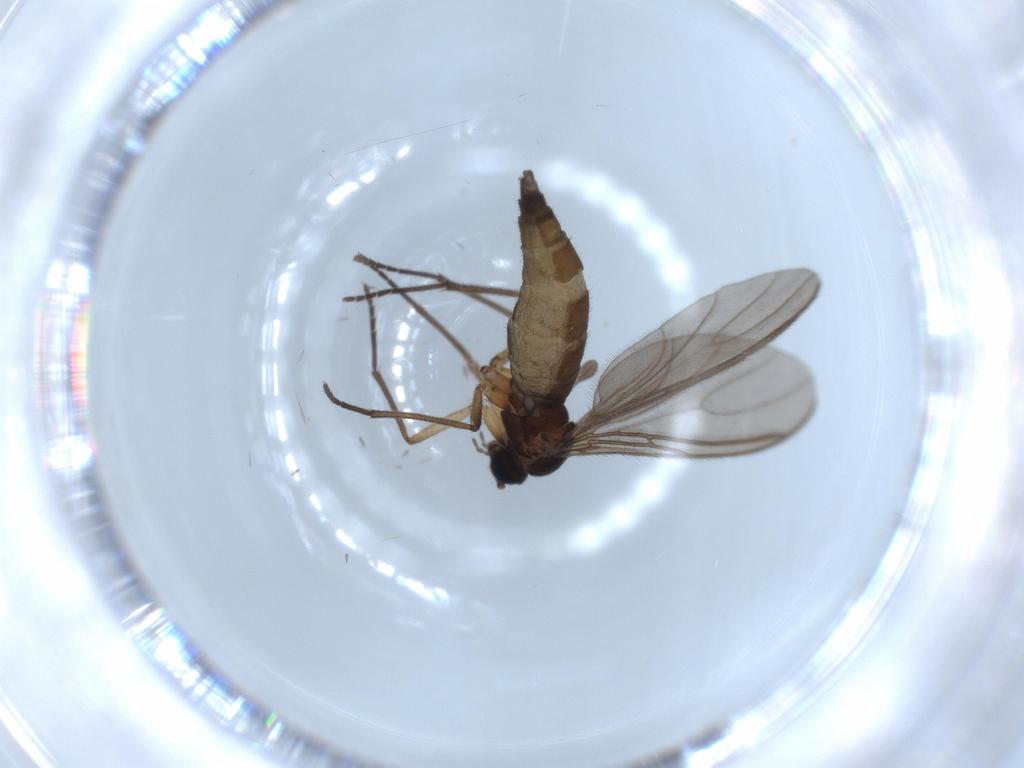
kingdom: Animalia
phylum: Arthropoda
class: Insecta
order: Diptera
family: Sciaridae
